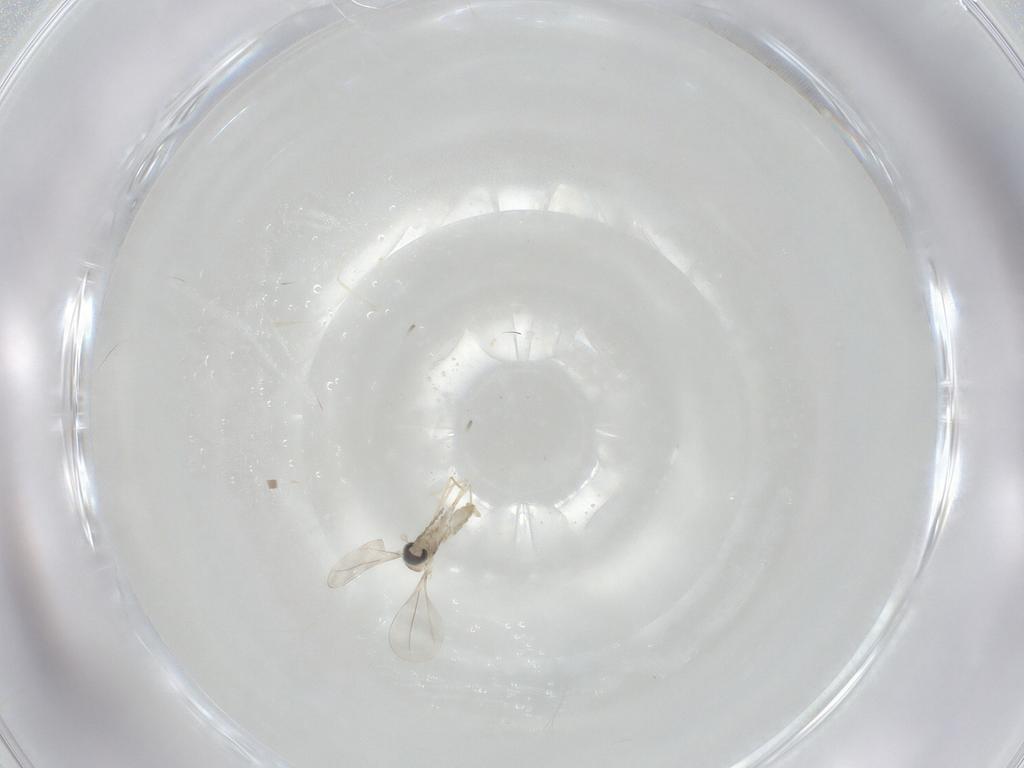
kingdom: Animalia
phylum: Arthropoda
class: Insecta
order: Diptera
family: Cecidomyiidae
